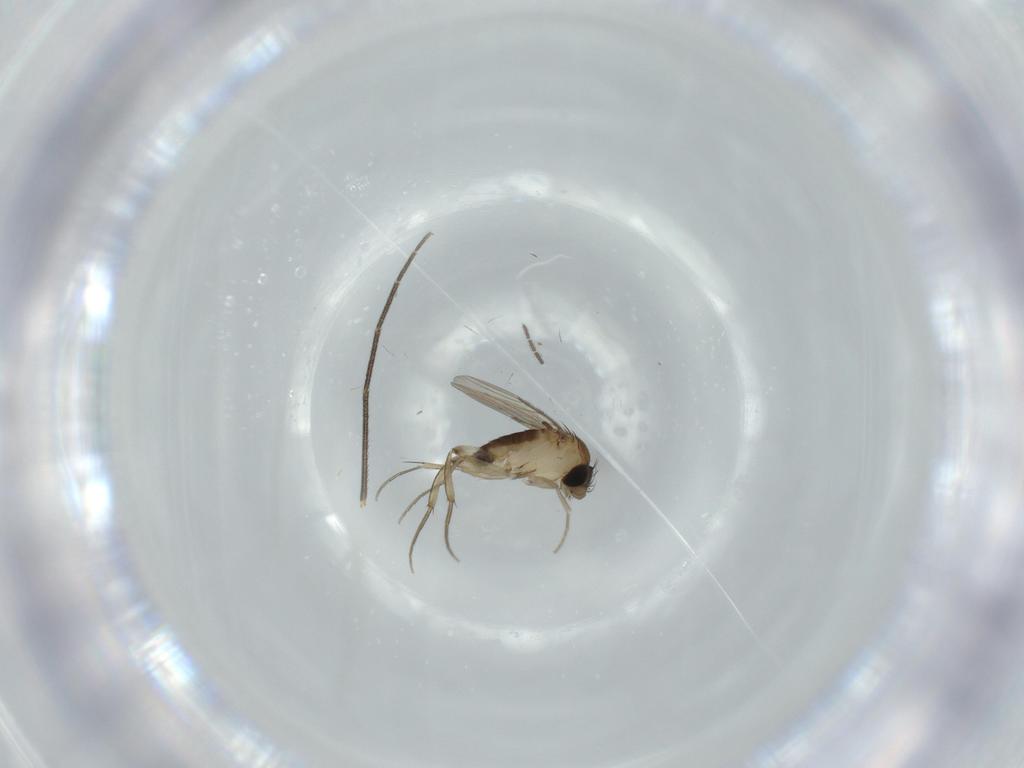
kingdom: Animalia
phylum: Arthropoda
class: Insecta
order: Diptera
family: Phoridae
